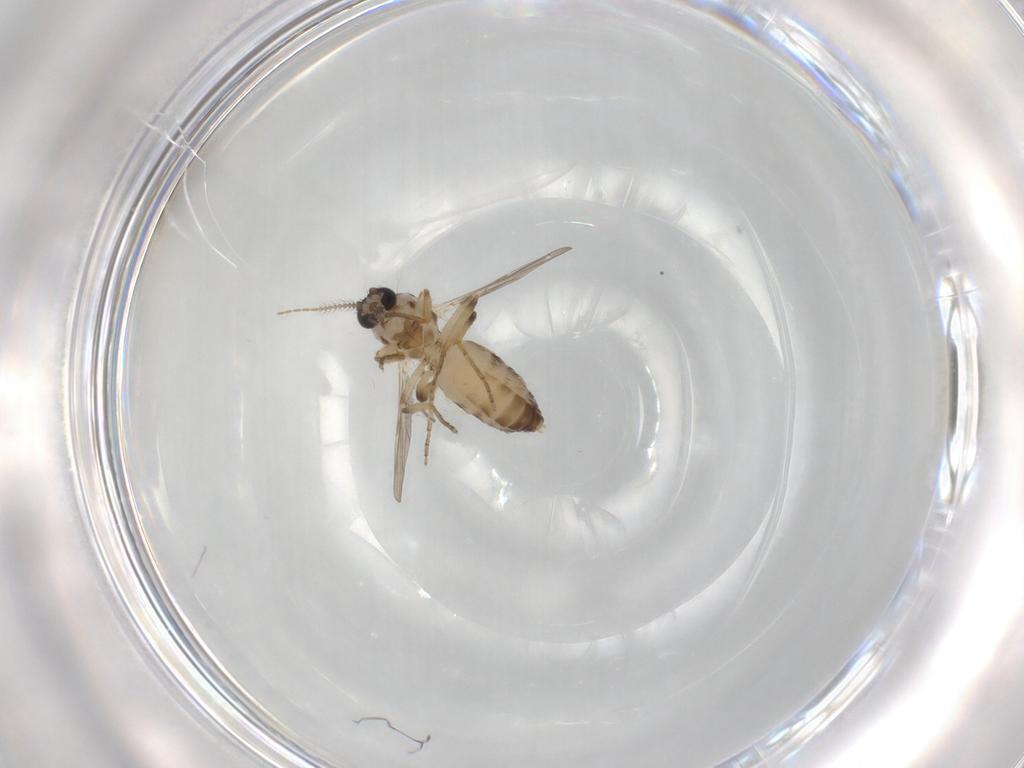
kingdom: Animalia
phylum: Arthropoda
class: Insecta
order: Diptera
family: Ceratopogonidae
